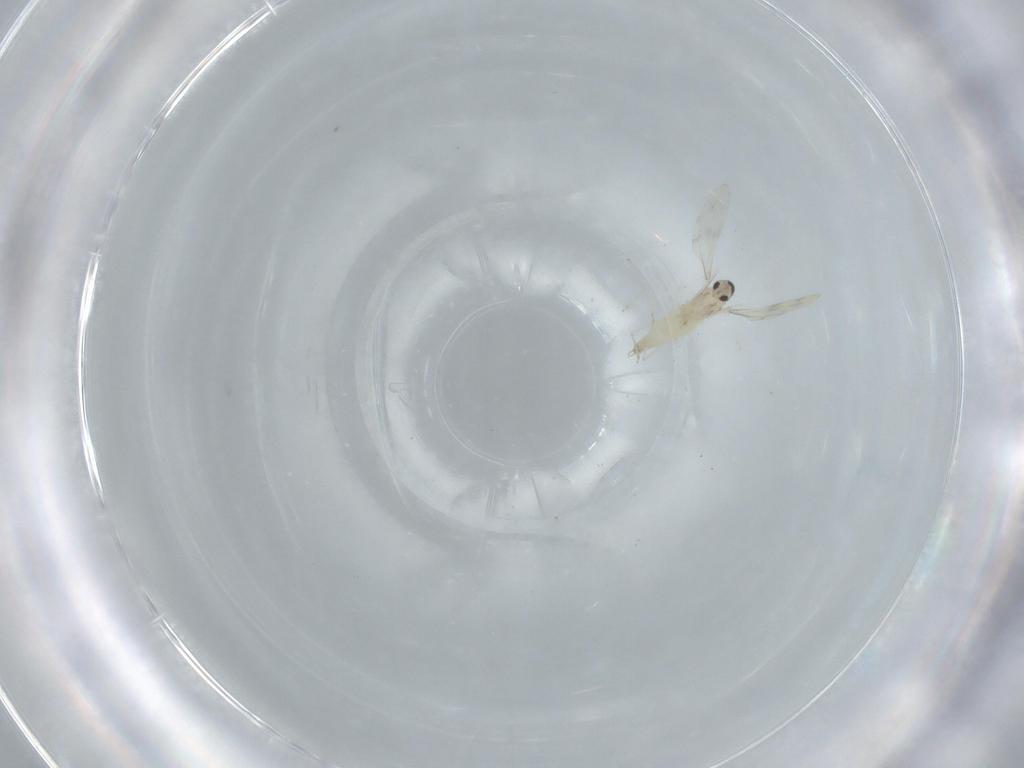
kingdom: Animalia
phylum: Arthropoda
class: Insecta
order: Diptera
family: Cecidomyiidae
